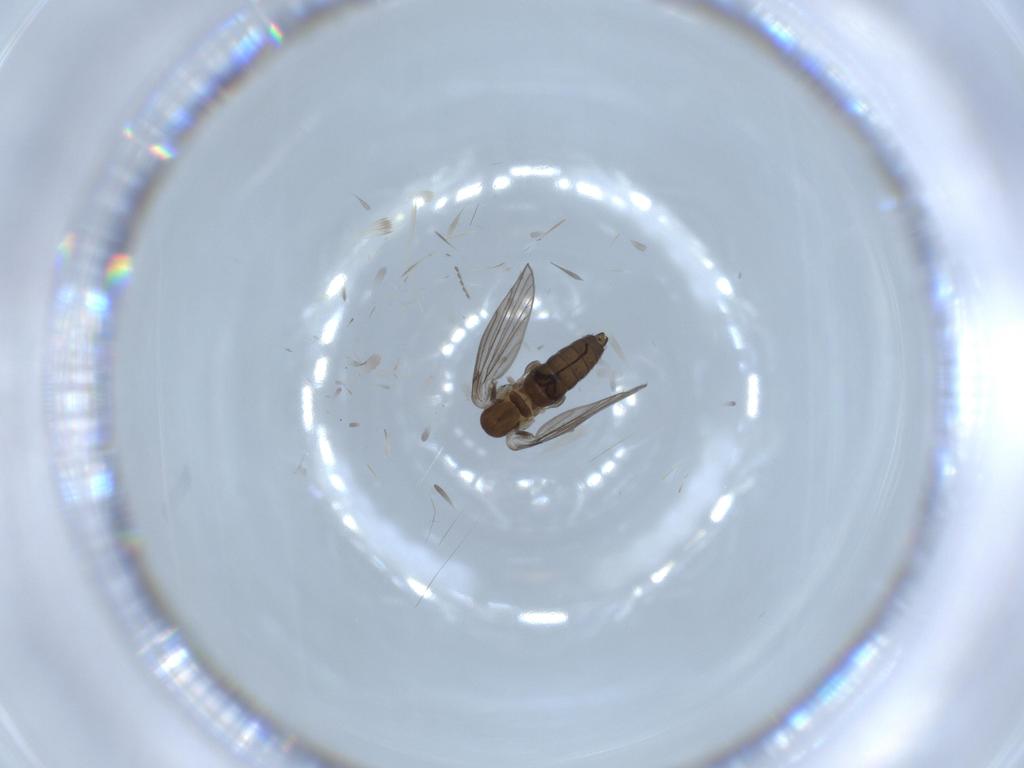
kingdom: Animalia
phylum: Arthropoda
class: Insecta
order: Diptera
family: Psychodidae
